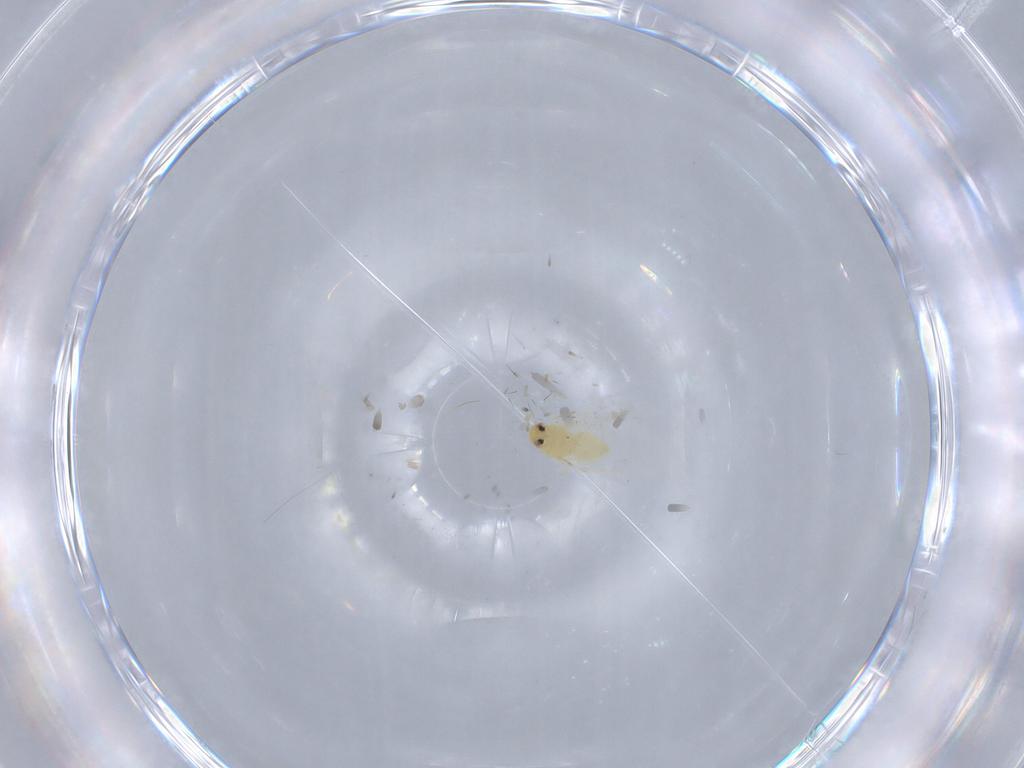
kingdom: Animalia
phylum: Arthropoda
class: Insecta
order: Hemiptera
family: Aleyrodidae
